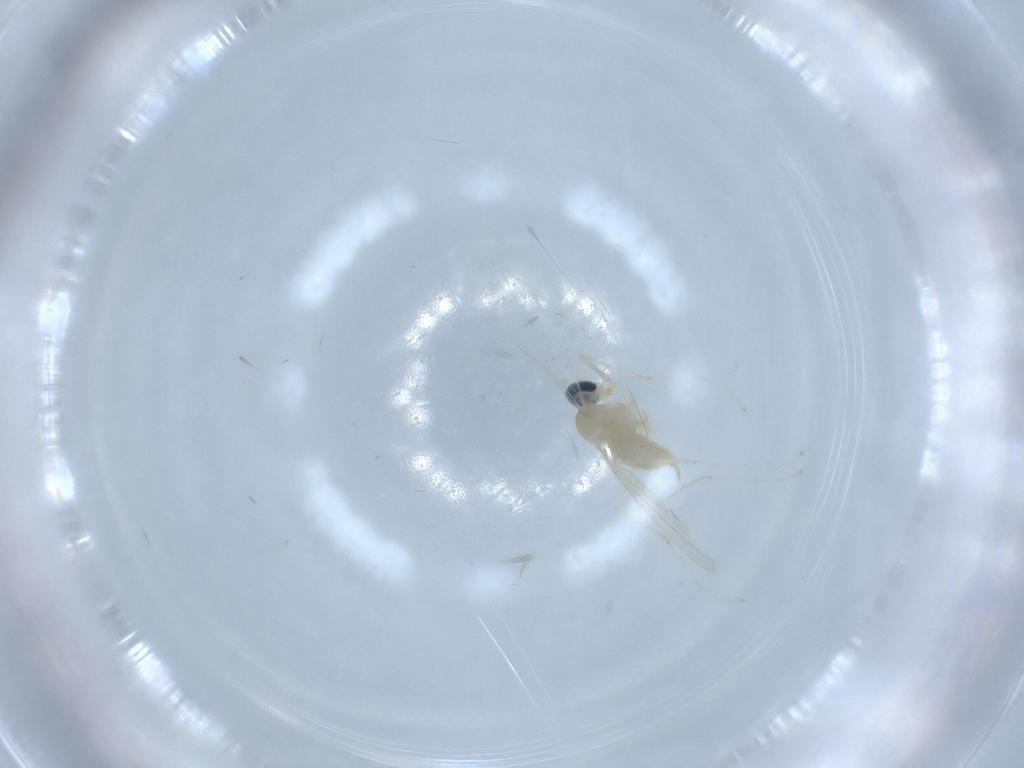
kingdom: Animalia
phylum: Arthropoda
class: Insecta
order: Diptera
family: Cecidomyiidae
